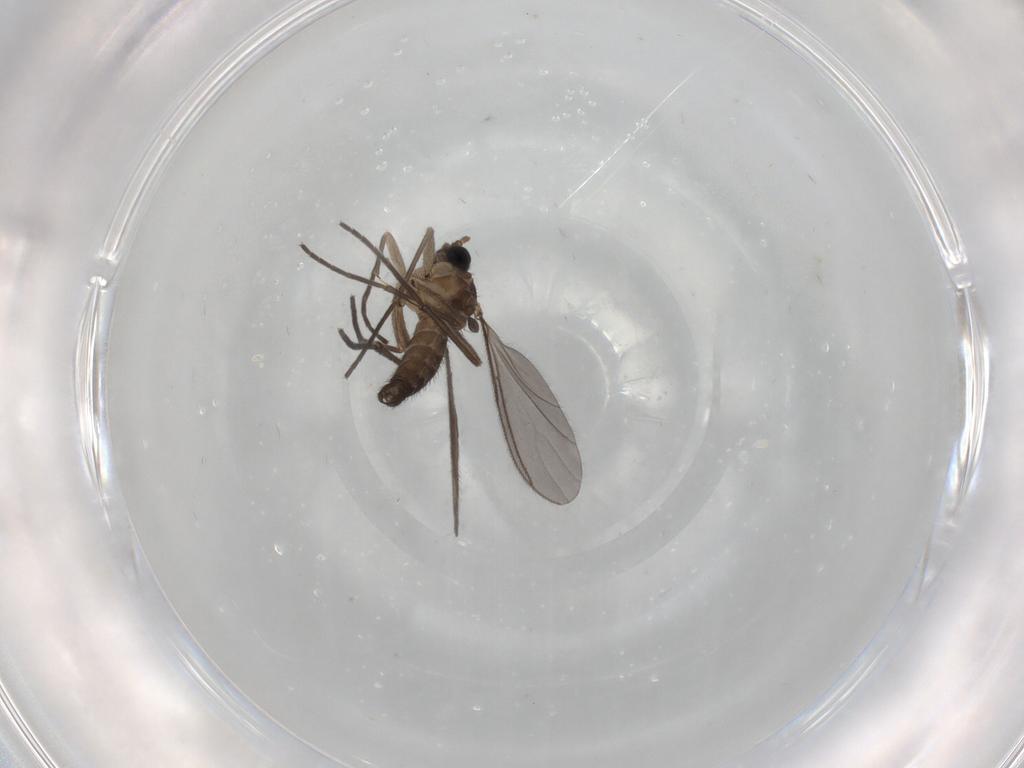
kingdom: Animalia
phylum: Arthropoda
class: Insecta
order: Diptera
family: Sciaridae
